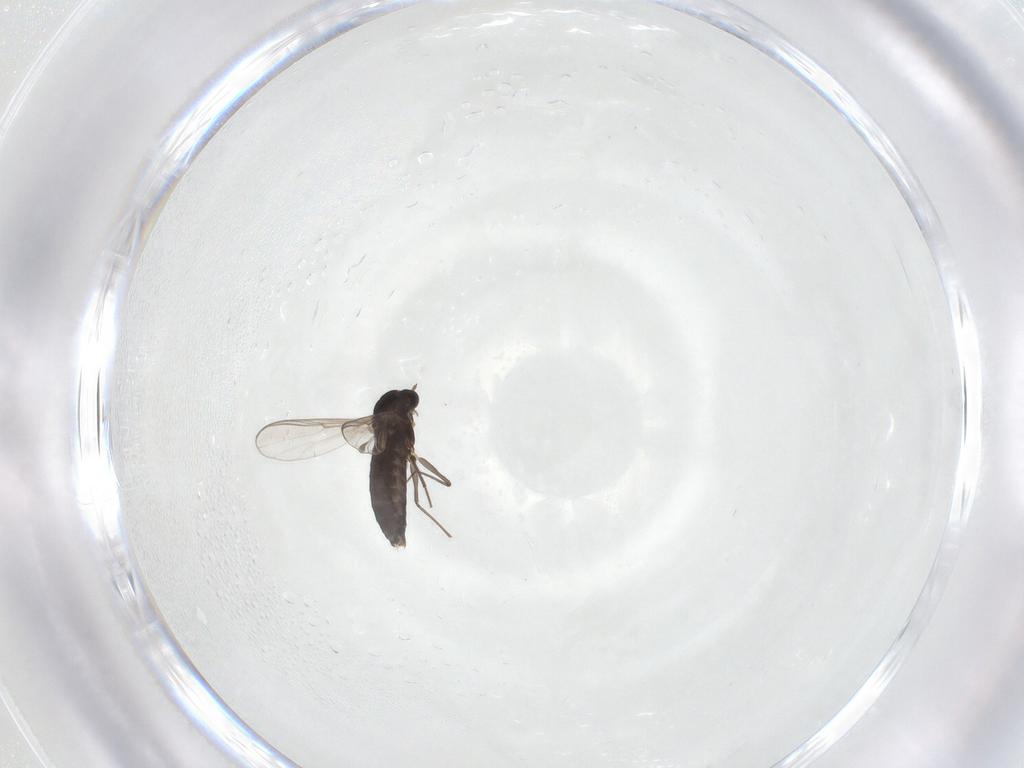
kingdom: Animalia
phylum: Arthropoda
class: Insecta
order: Diptera
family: Chironomidae
